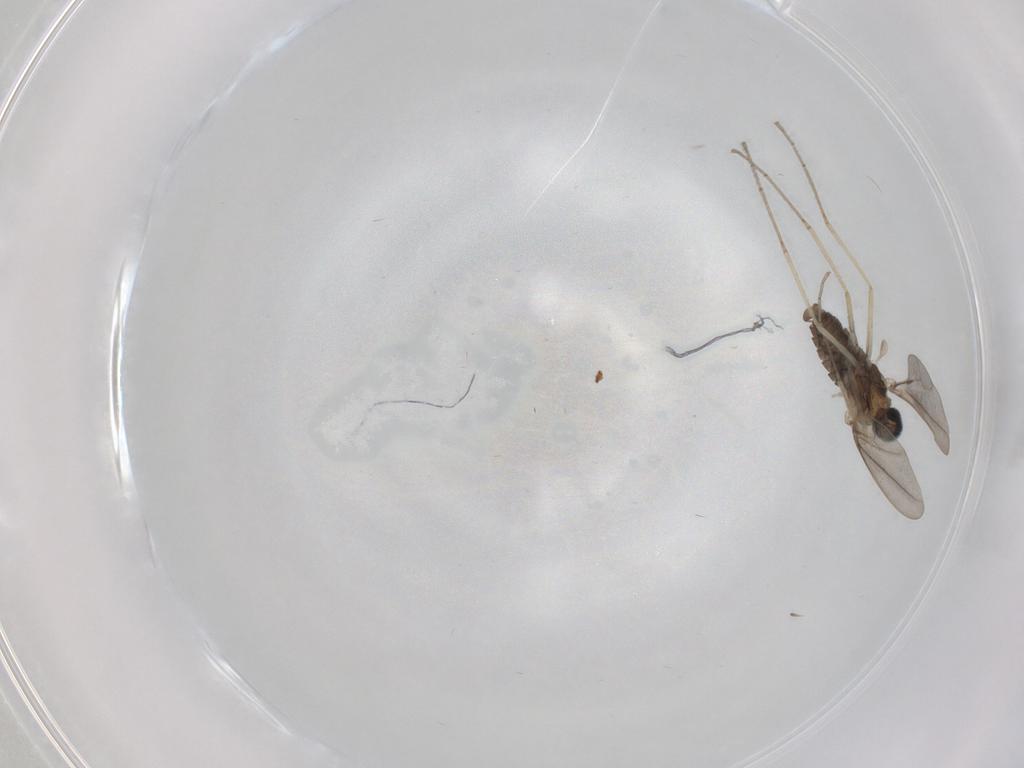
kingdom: Animalia
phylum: Arthropoda
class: Insecta
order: Diptera
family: Cecidomyiidae
